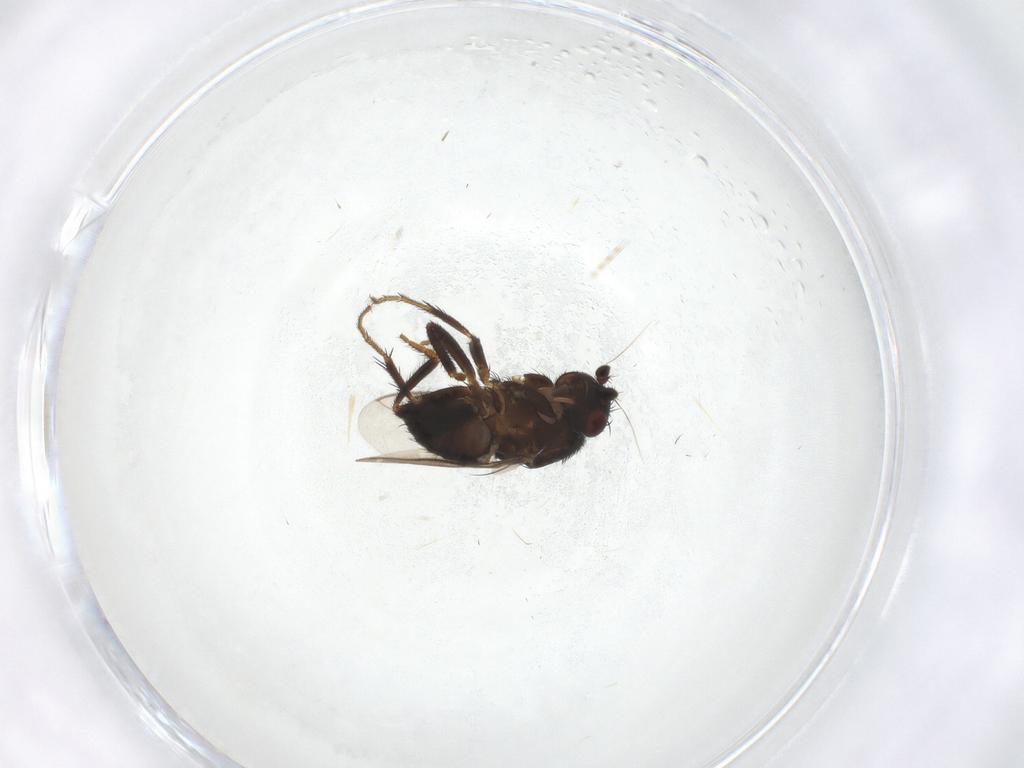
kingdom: Animalia
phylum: Arthropoda
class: Insecta
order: Diptera
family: Sphaeroceridae
